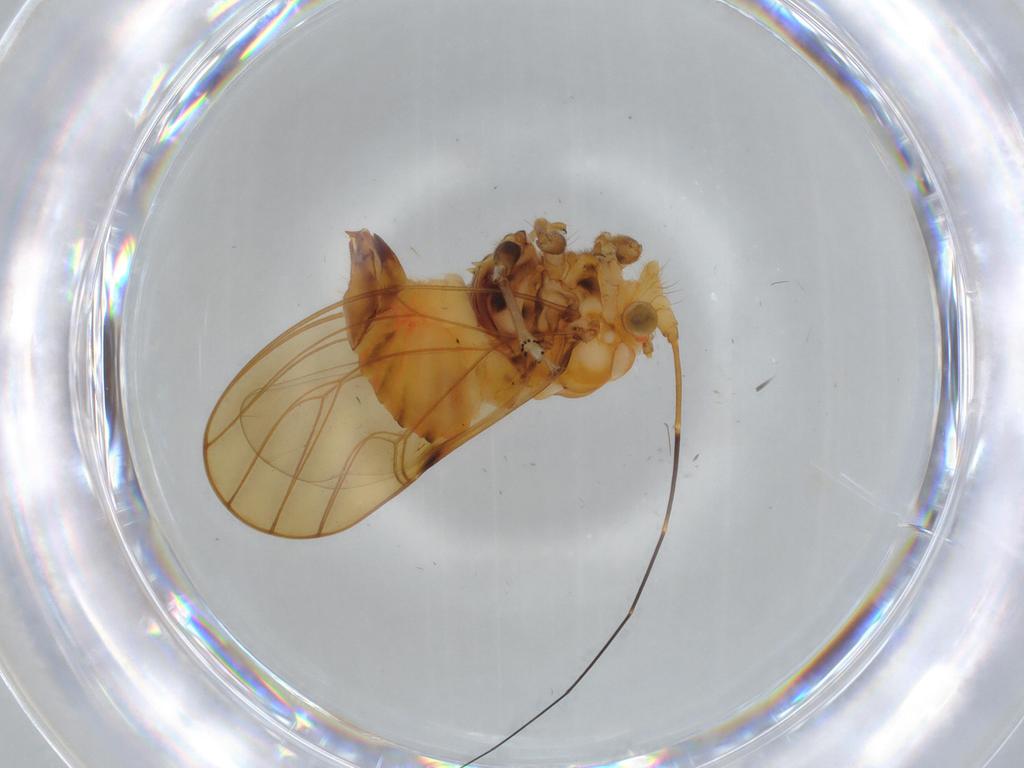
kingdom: Animalia
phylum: Arthropoda
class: Insecta
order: Hemiptera
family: Psyllidae
